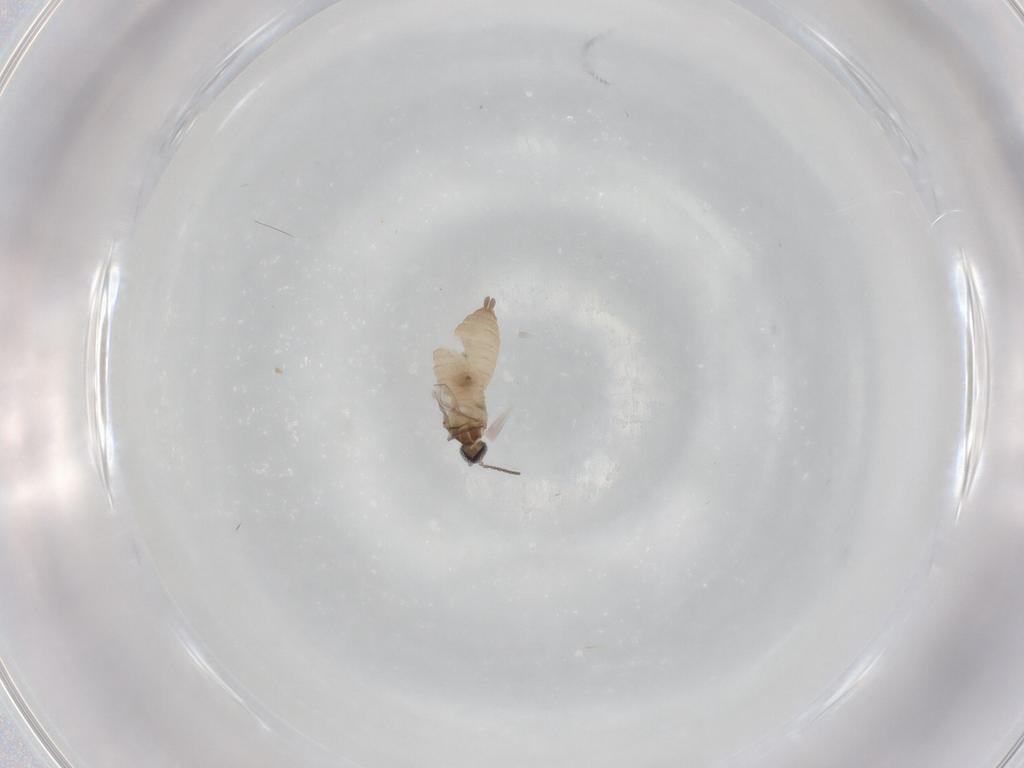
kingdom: Animalia
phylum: Arthropoda
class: Insecta
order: Diptera
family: Cecidomyiidae
